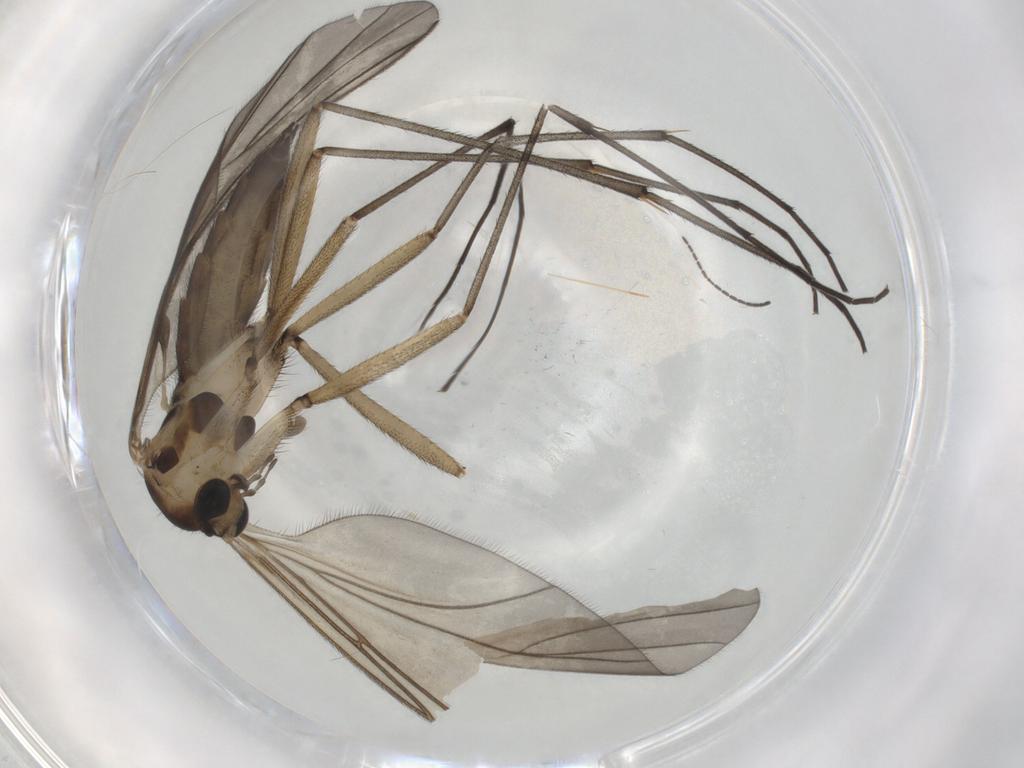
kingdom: Animalia
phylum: Arthropoda
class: Insecta
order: Diptera
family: Sciaridae
